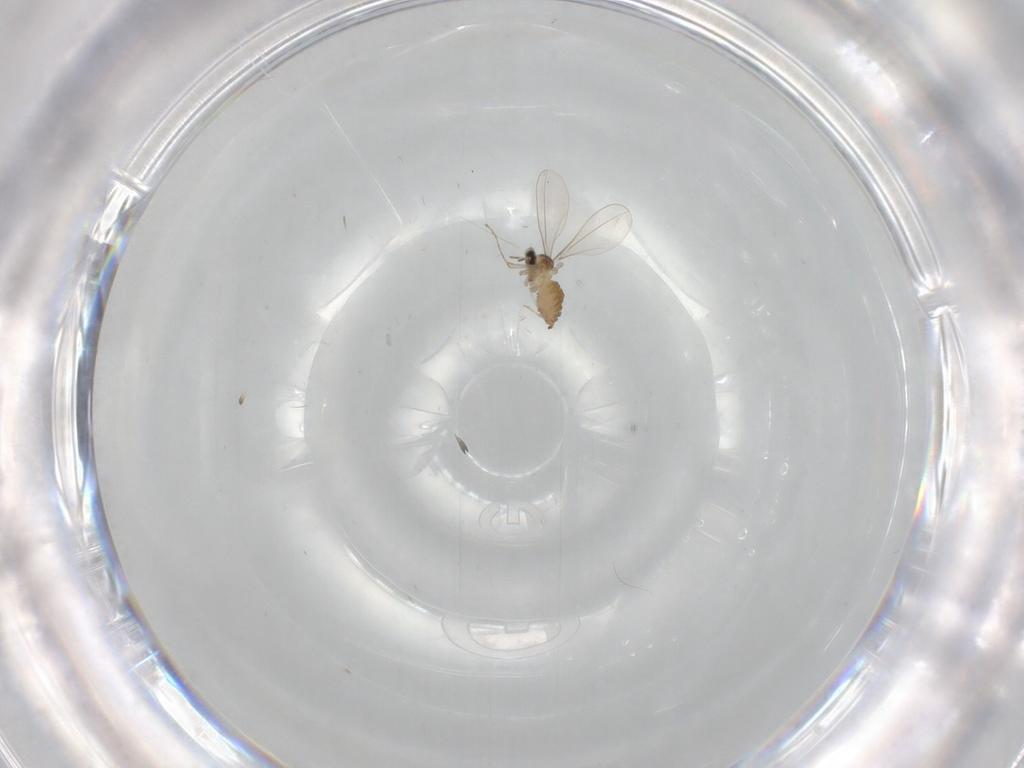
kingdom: Animalia
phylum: Arthropoda
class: Insecta
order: Diptera
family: Cecidomyiidae
